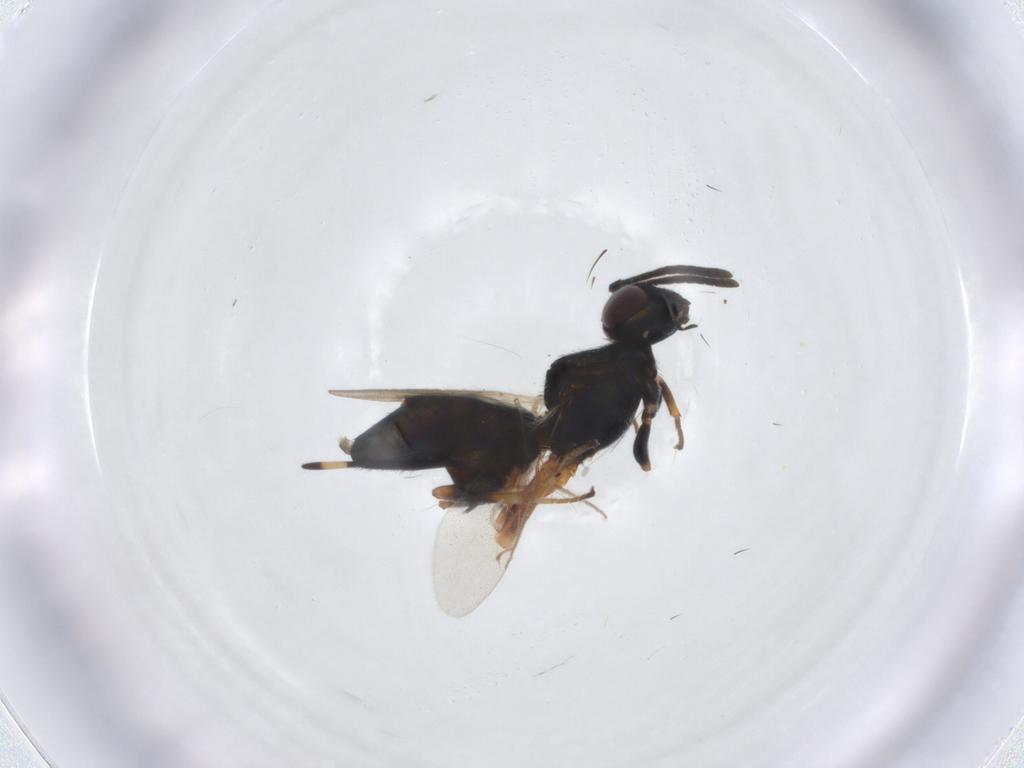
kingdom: Animalia
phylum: Arthropoda
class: Insecta
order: Hymenoptera
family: Eupelmidae
